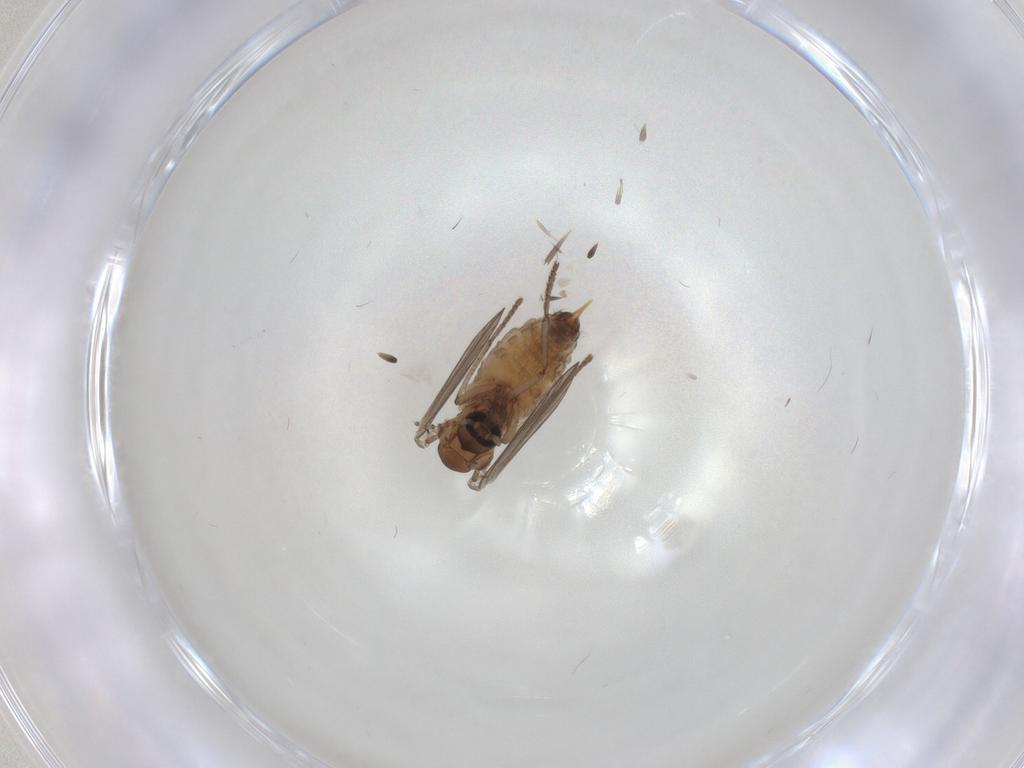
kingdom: Animalia
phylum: Arthropoda
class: Insecta
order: Diptera
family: Psychodidae
